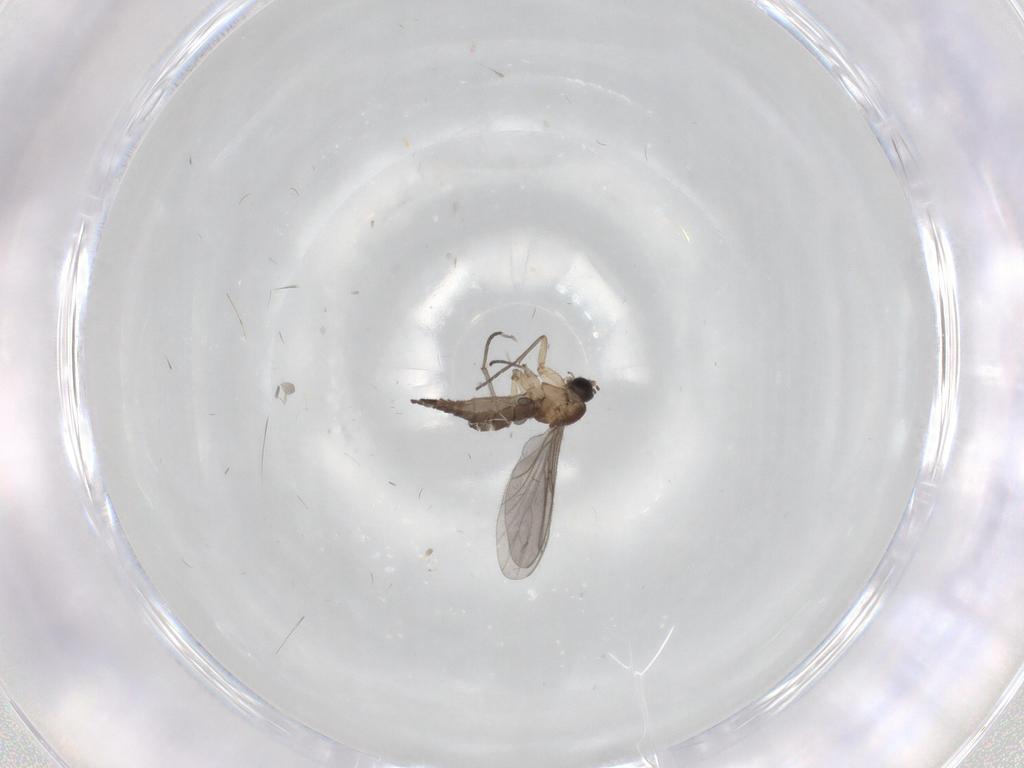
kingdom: Animalia
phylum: Arthropoda
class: Insecta
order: Diptera
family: Sciaridae
